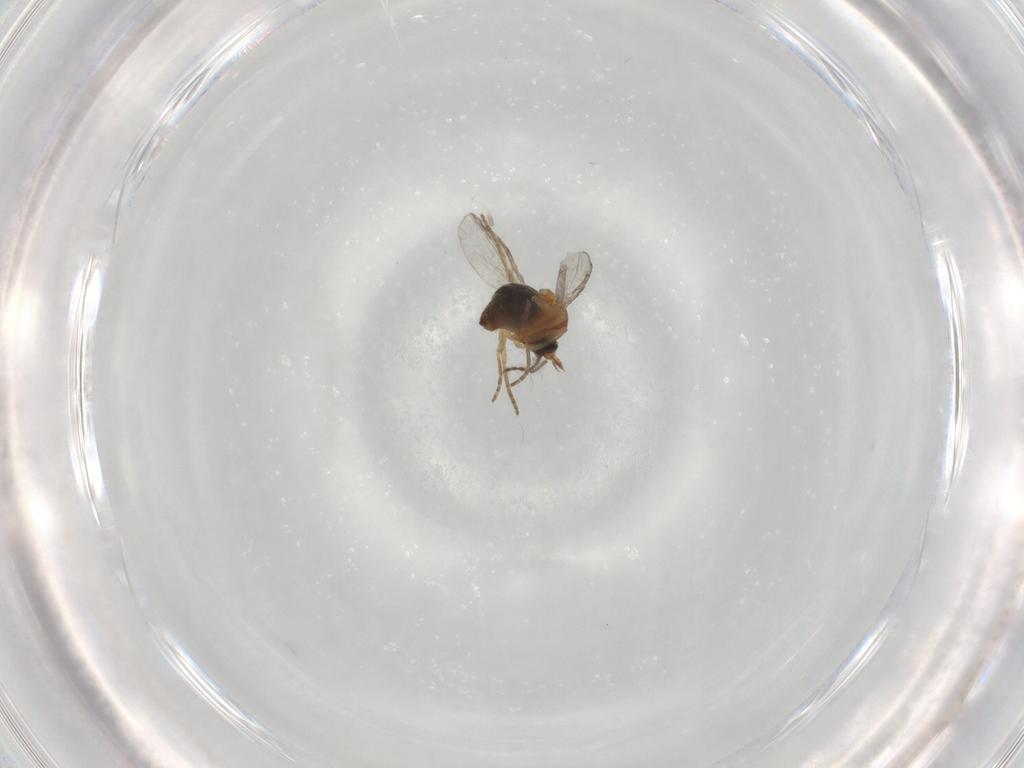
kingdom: Animalia
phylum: Arthropoda
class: Insecta
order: Diptera
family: Ceratopogonidae
